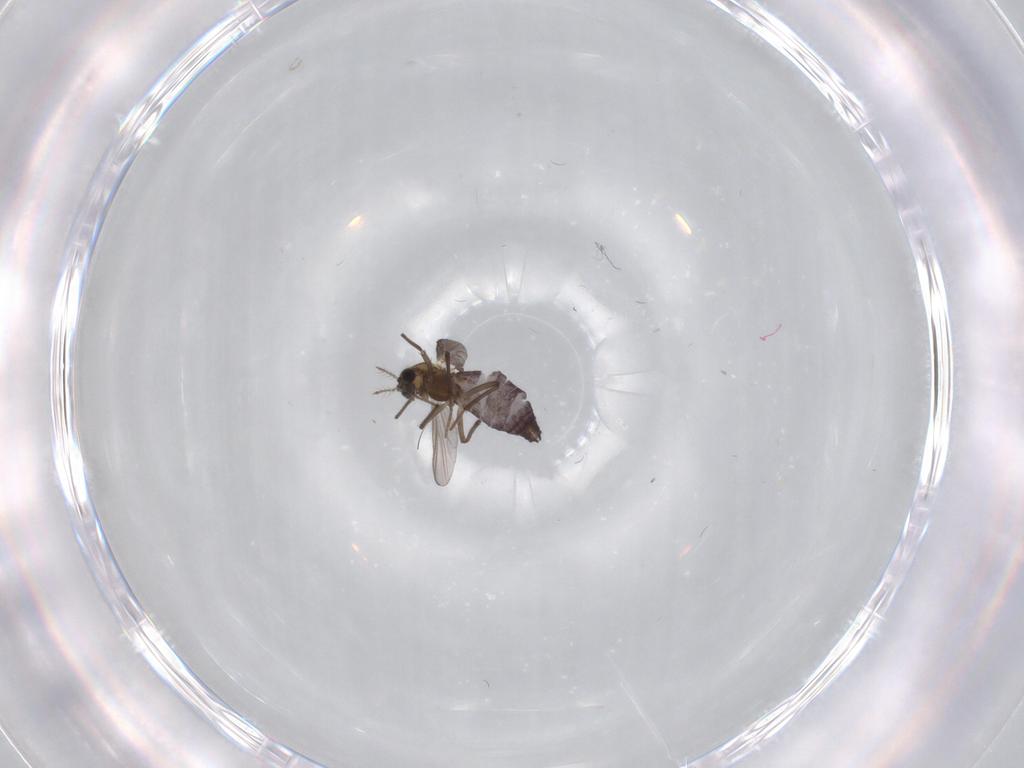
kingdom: Animalia
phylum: Arthropoda
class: Insecta
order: Diptera
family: Chironomidae
